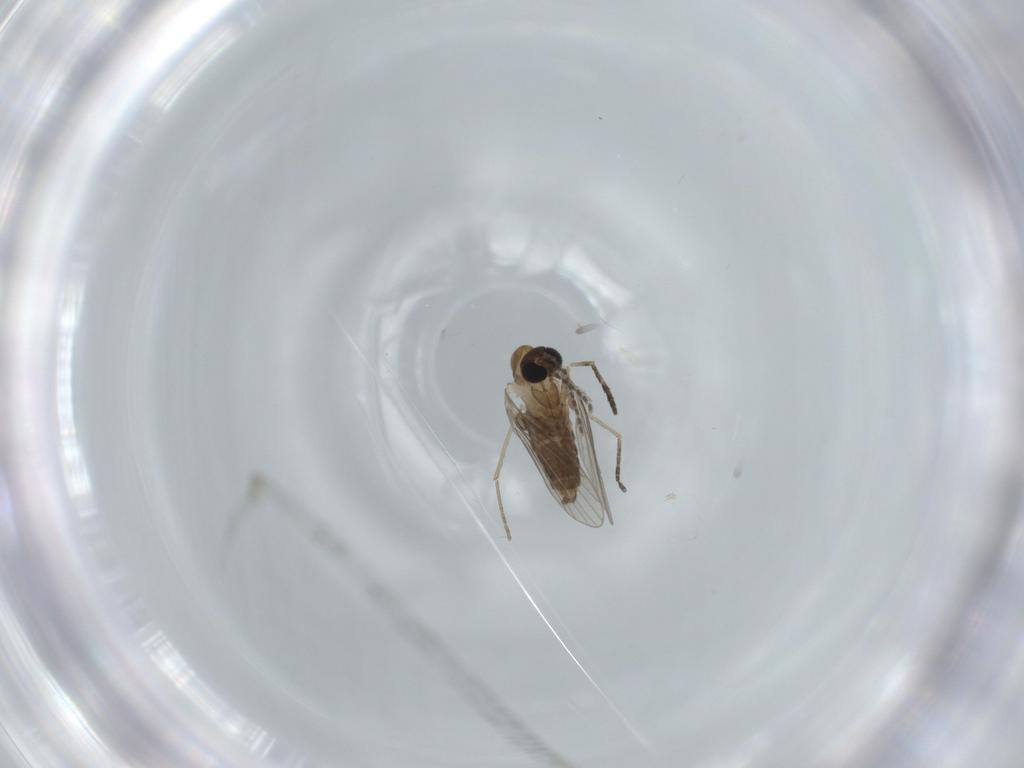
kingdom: Animalia
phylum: Arthropoda
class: Insecta
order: Diptera
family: Psychodidae
